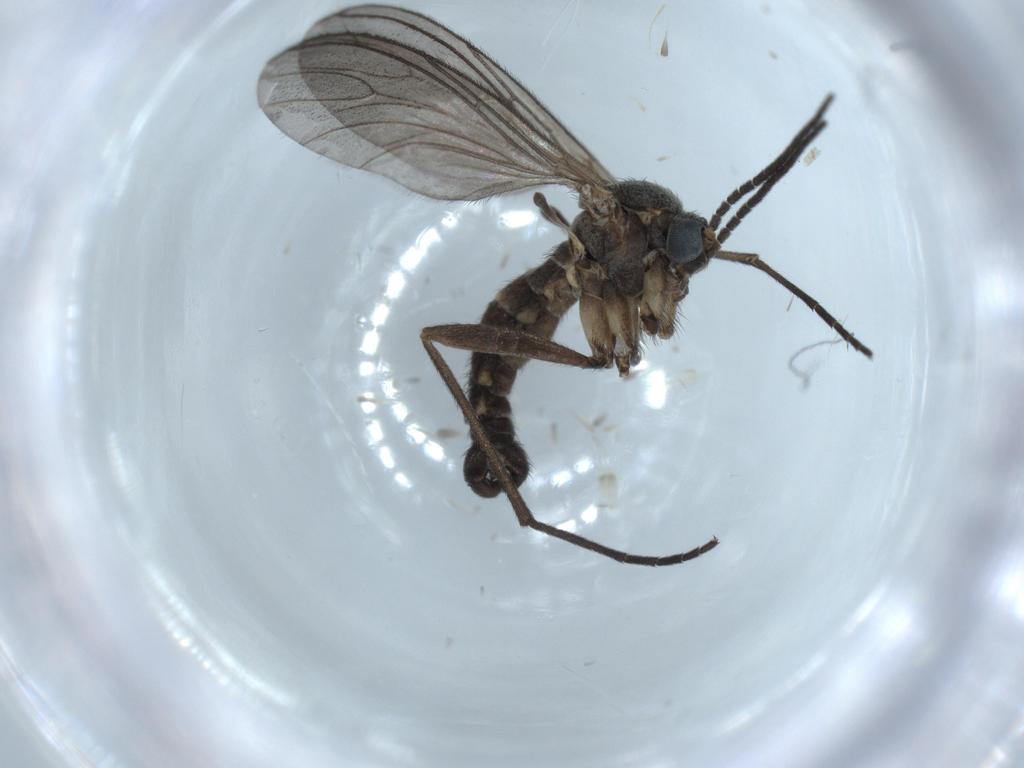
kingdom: Animalia
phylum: Arthropoda
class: Insecta
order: Diptera
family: Sciaridae
